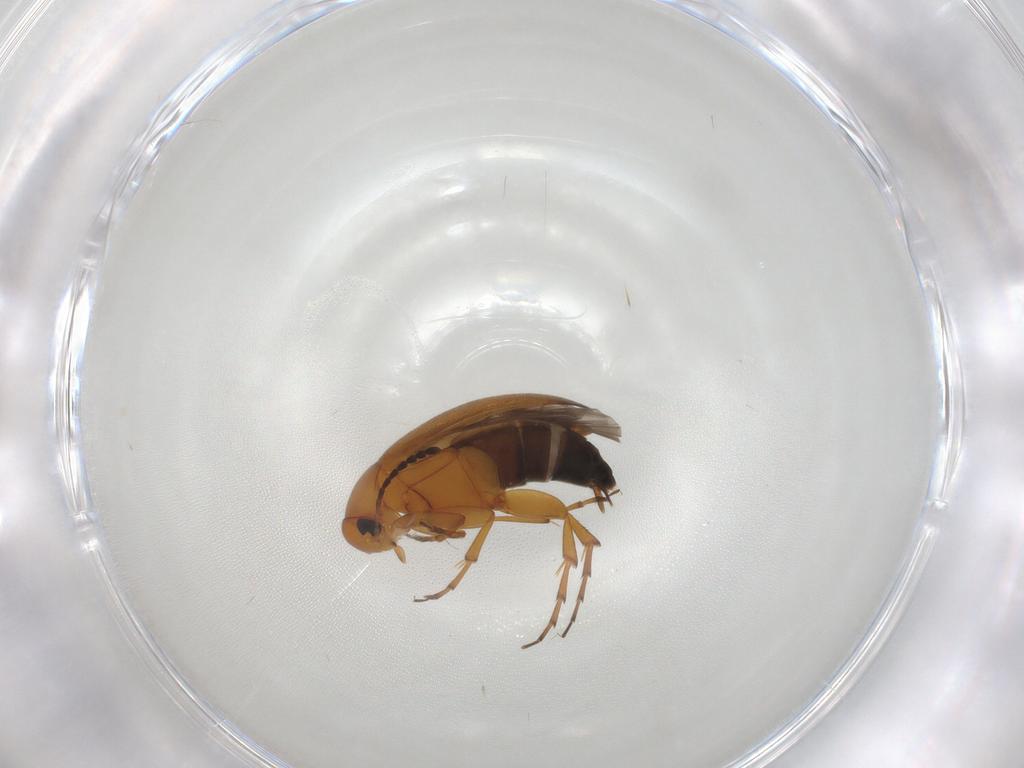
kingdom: Animalia
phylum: Arthropoda
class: Insecta
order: Coleoptera
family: Scraptiidae
